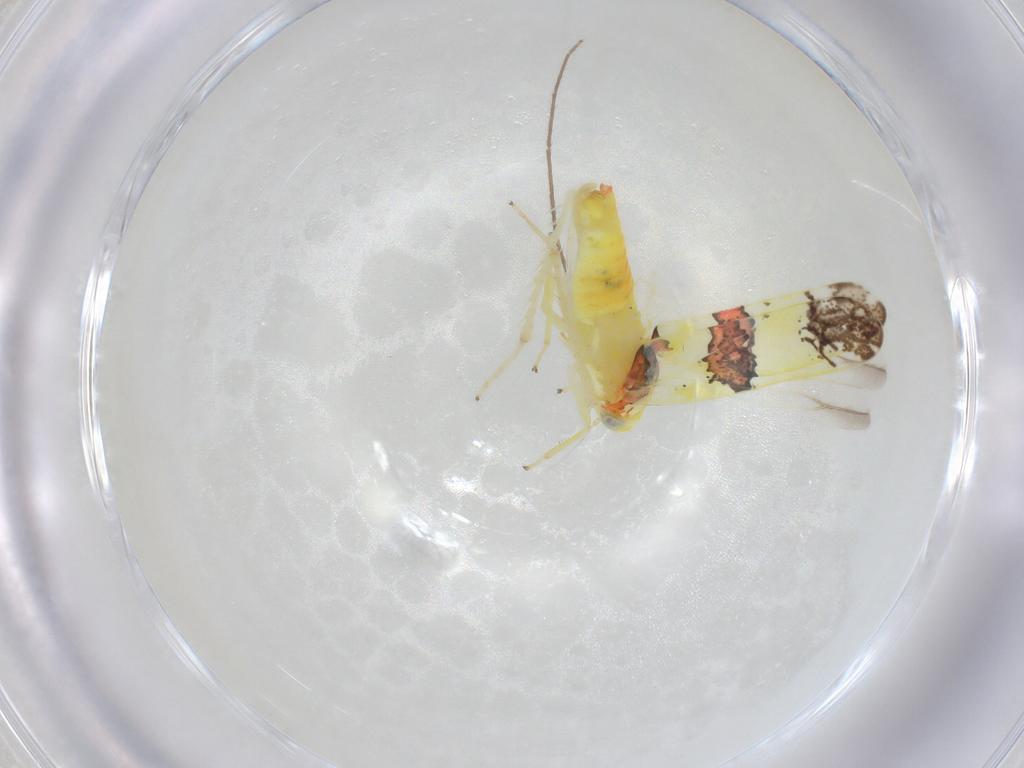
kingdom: Animalia
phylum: Arthropoda
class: Insecta
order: Hemiptera
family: Cicadellidae
